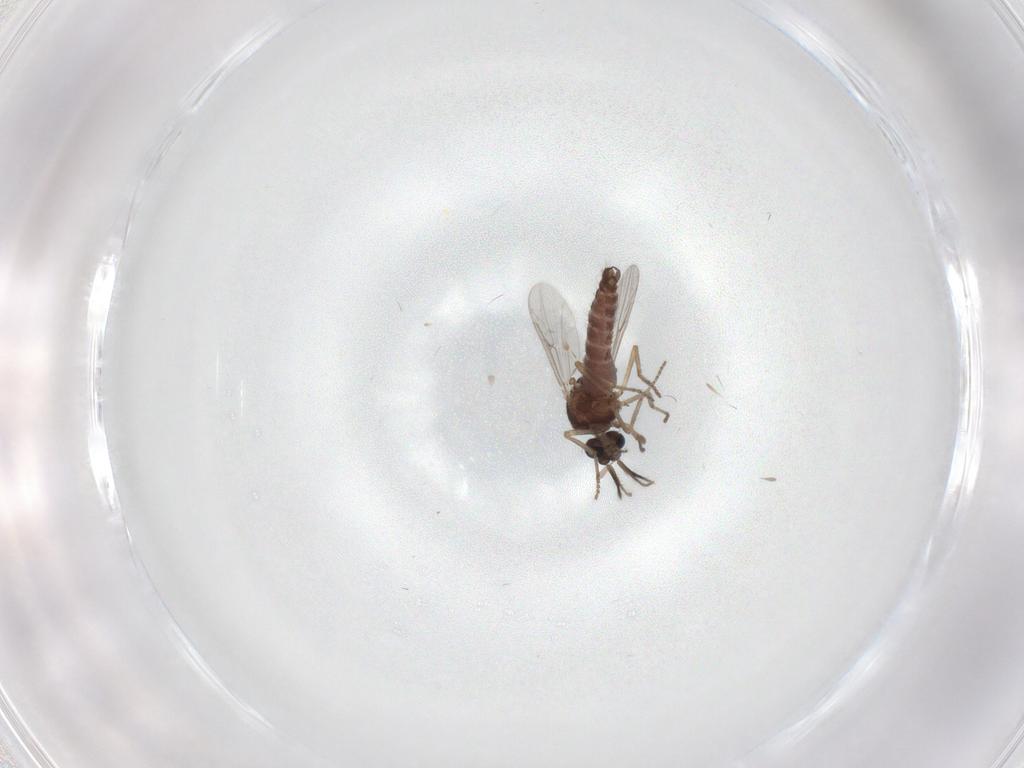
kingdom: Animalia
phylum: Arthropoda
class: Insecta
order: Diptera
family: Ceratopogonidae
